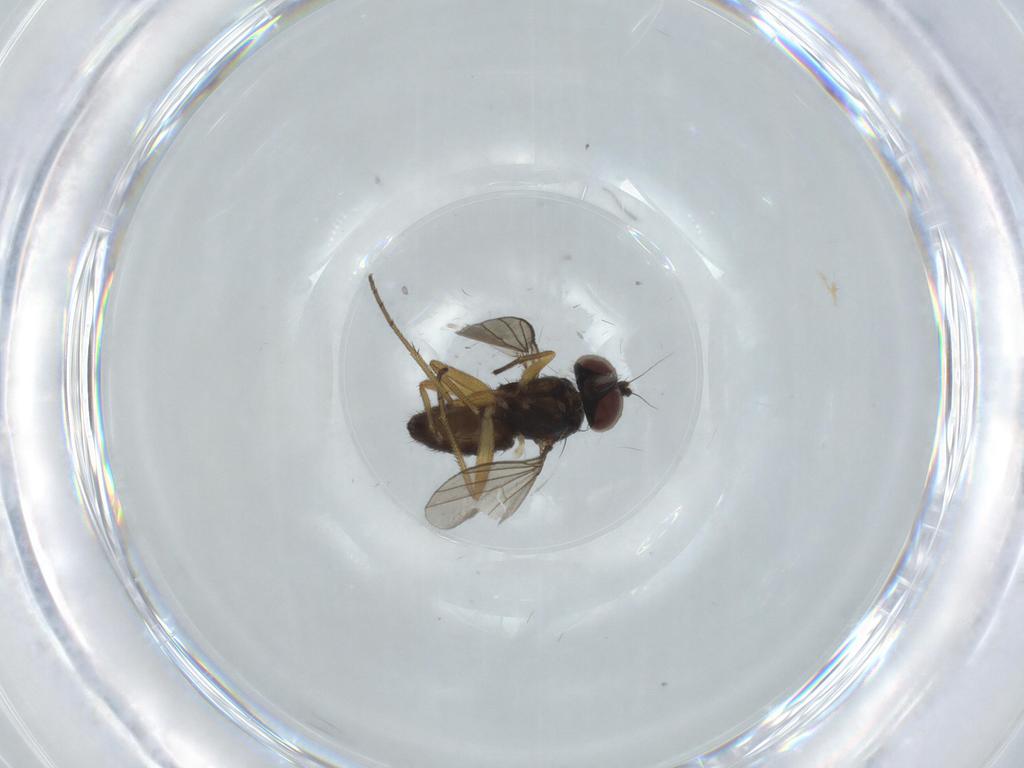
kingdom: Animalia
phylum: Arthropoda
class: Insecta
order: Diptera
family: Dolichopodidae
